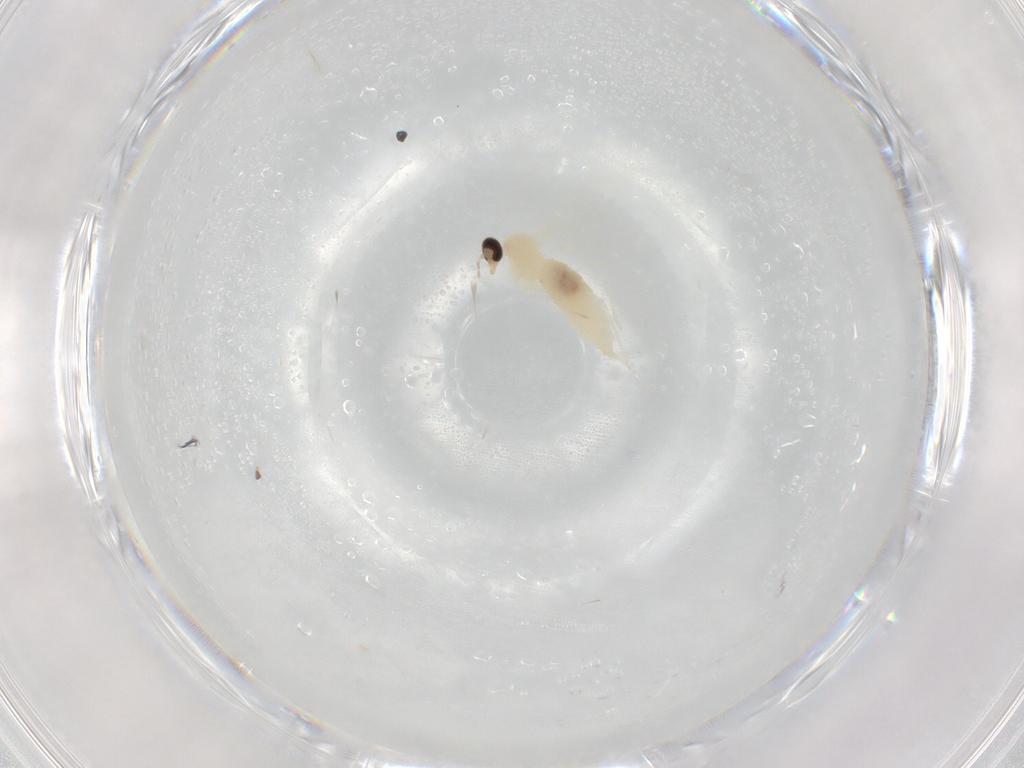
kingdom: Animalia
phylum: Arthropoda
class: Insecta
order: Diptera
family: Cecidomyiidae
